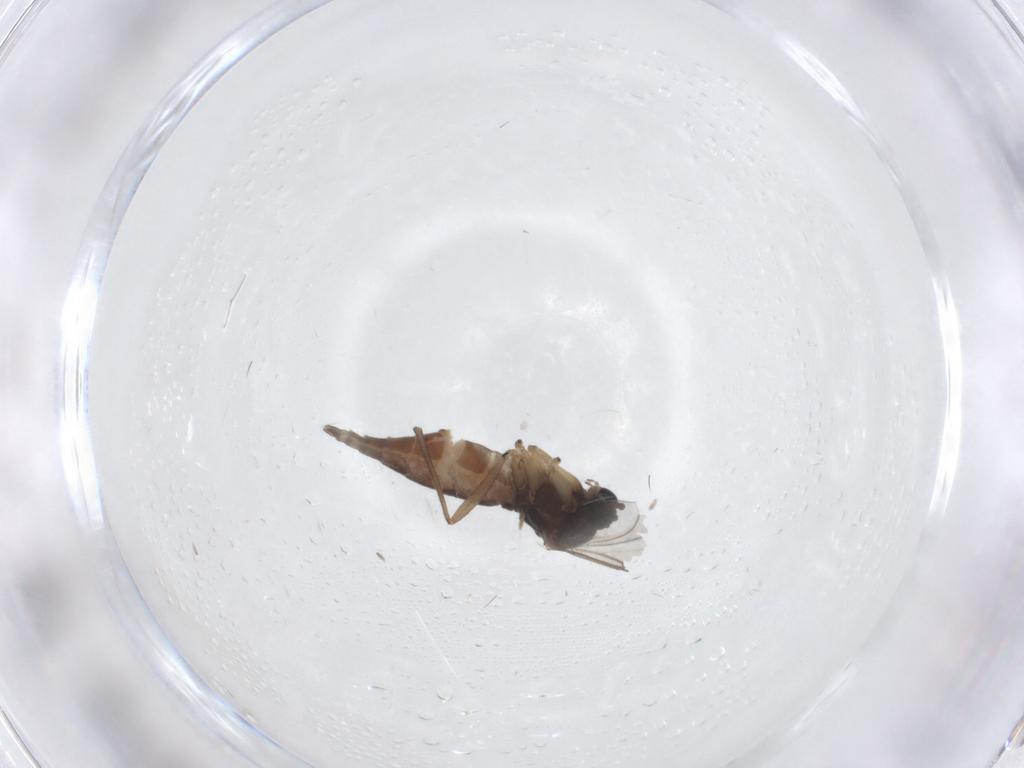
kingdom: Animalia
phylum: Arthropoda
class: Insecta
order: Diptera
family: Sciaridae
